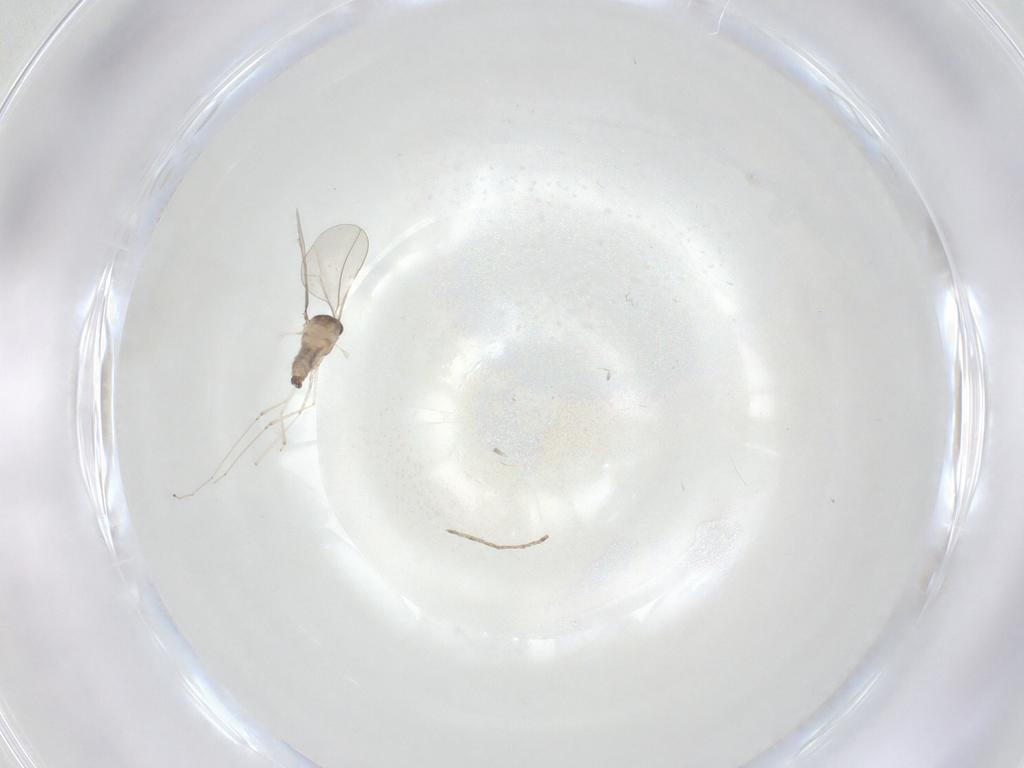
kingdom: Animalia
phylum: Arthropoda
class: Insecta
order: Diptera
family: Cecidomyiidae
